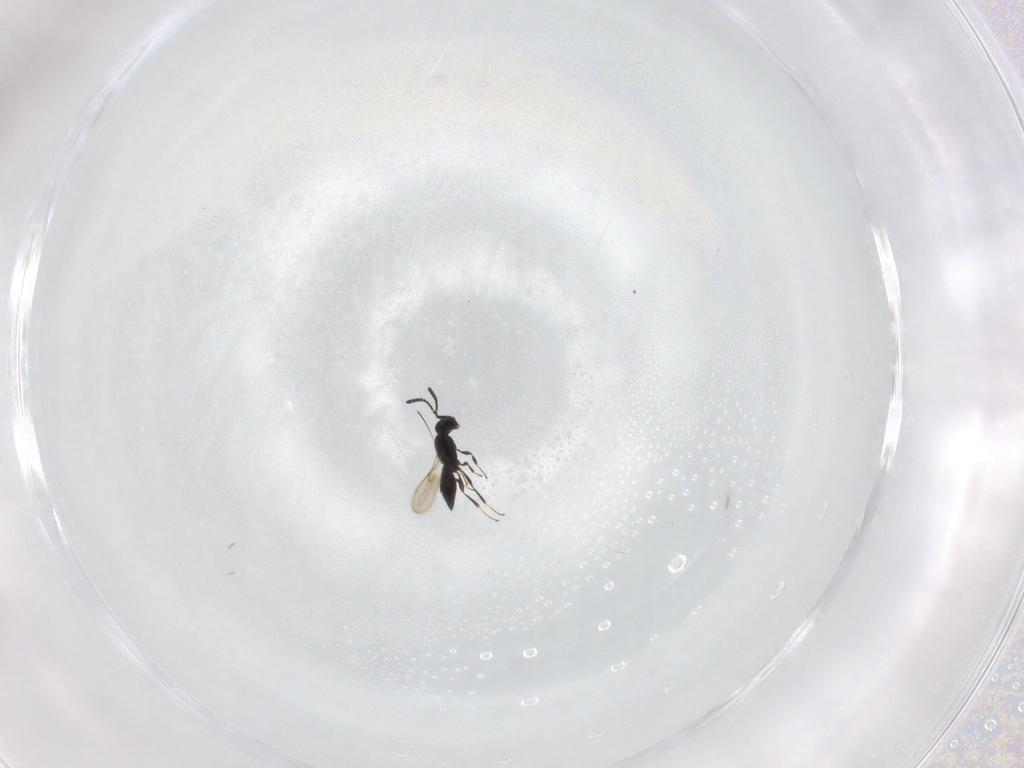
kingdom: Animalia
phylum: Arthropoda
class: Insecta
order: Hymenoptera
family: Scelionidae
